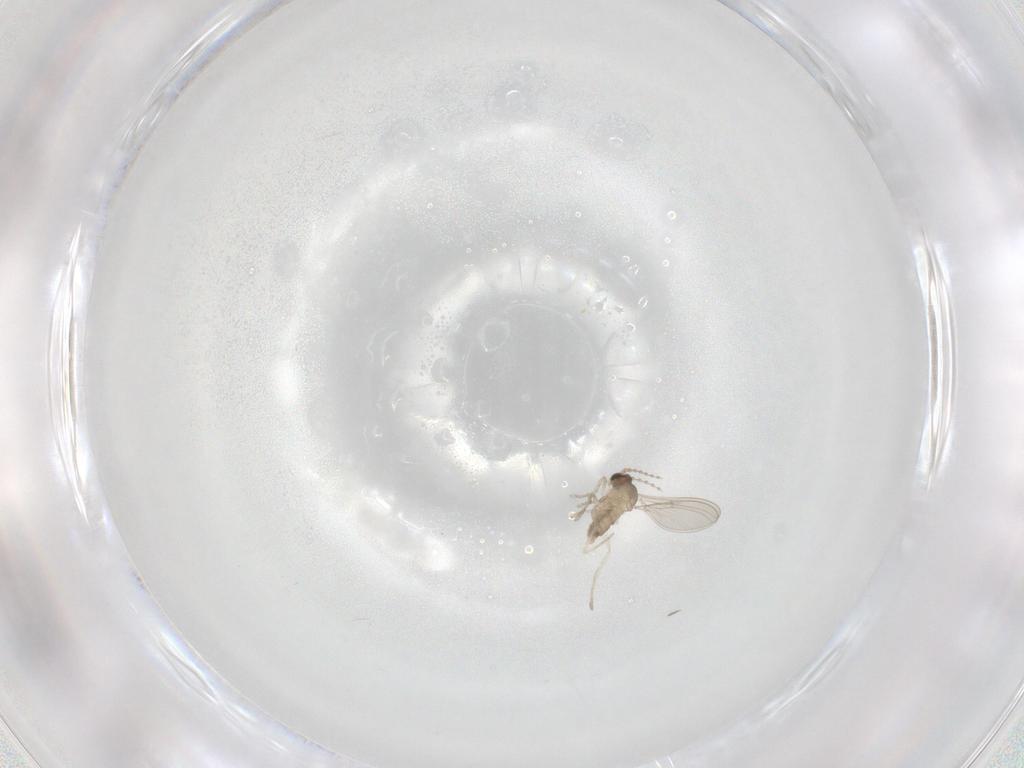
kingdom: Animalia
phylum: Arthropoda
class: Insecta
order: Diptera
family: Cecidomyiidae
